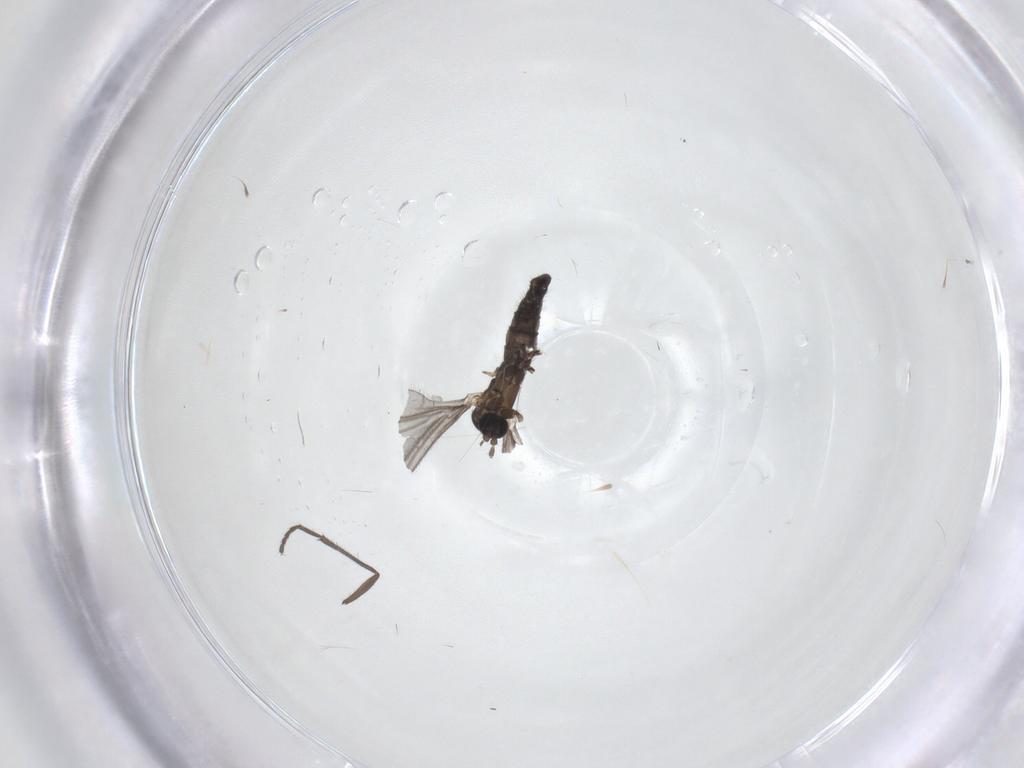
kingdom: Animalia
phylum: Arthropoda
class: Insecta
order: Diptera
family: Sciaridae
